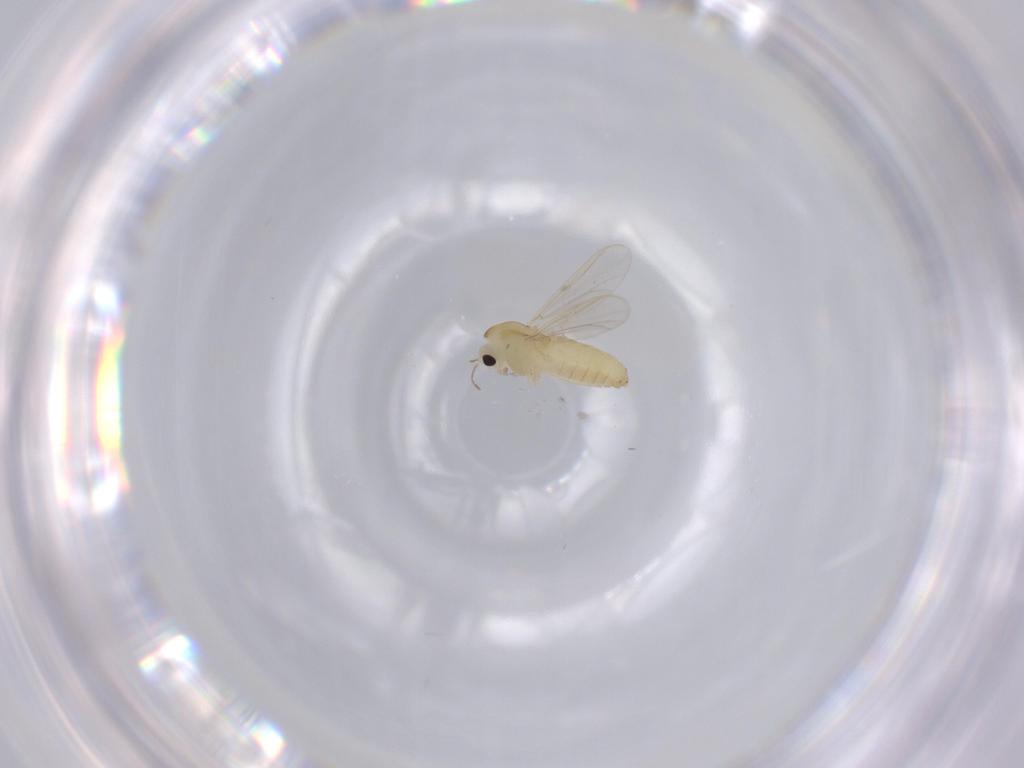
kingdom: Animalia
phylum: Arthropoda
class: Insecta
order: Diptera
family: Chironomidae
